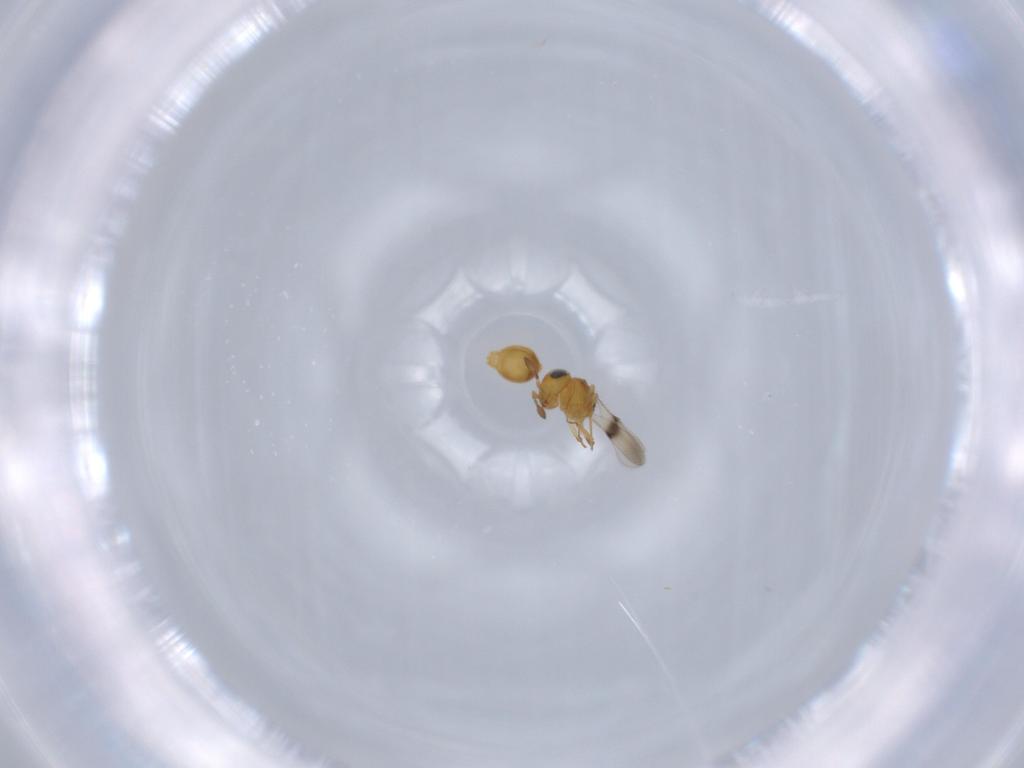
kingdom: Animalia
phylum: Arthropoda
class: Insecta
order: Hymenoptera
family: Scelionidae
